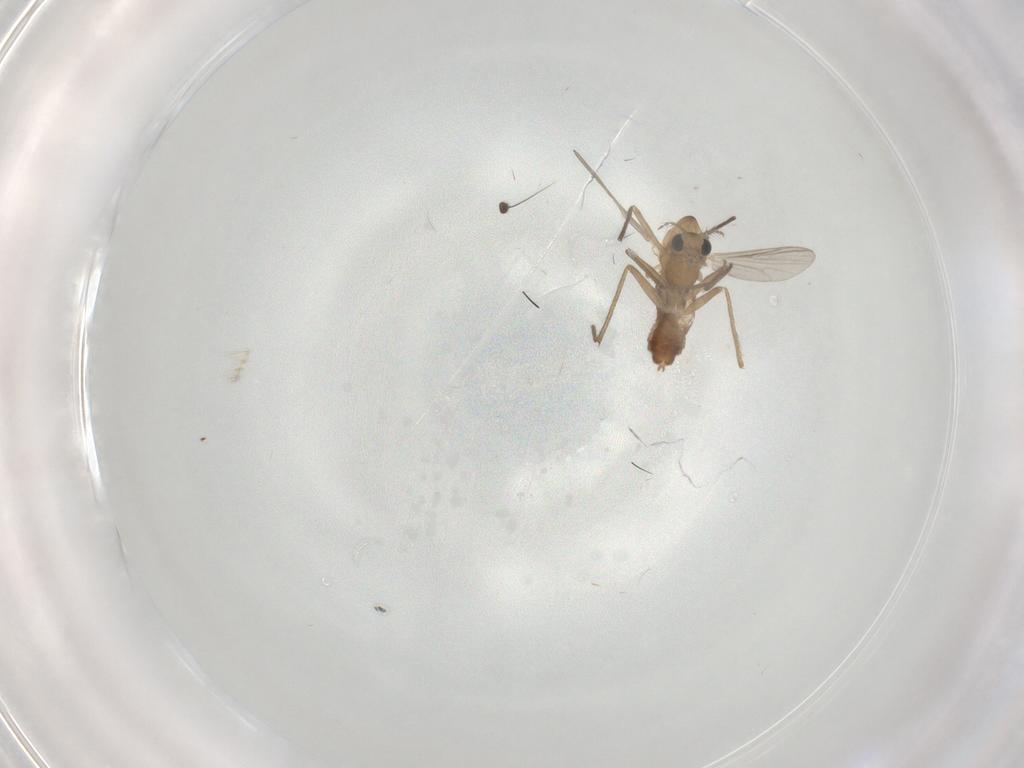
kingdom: Animalia
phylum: Arthropoda
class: Insecta
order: Diptera
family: Chironomidae
